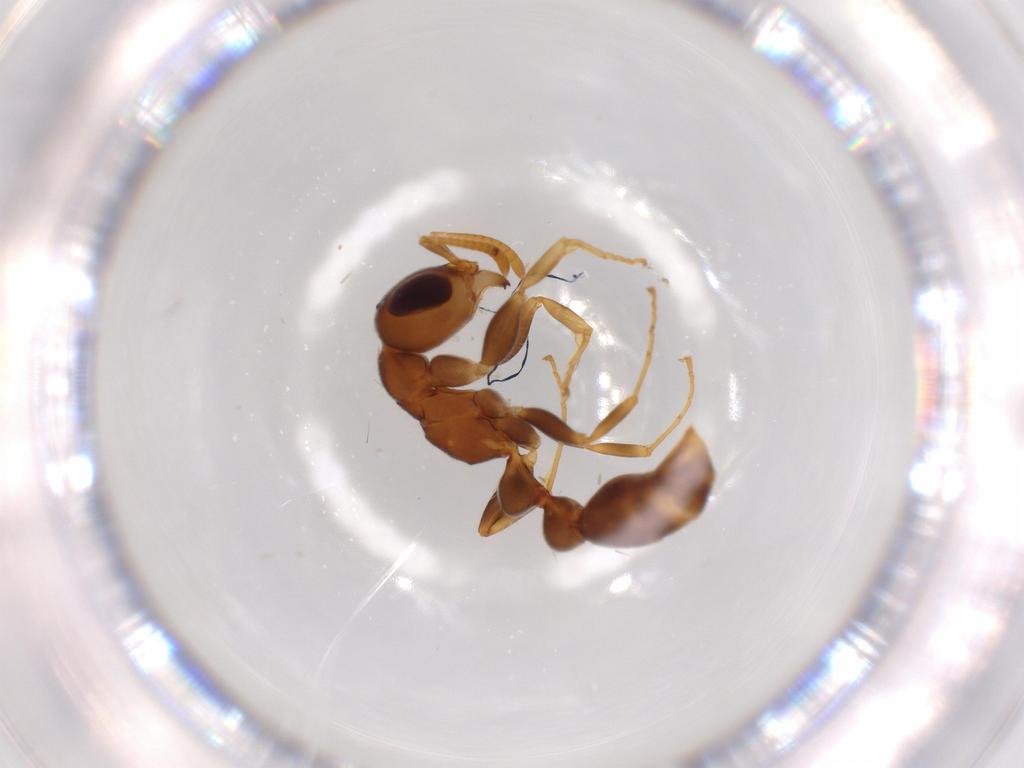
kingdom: Animalia
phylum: Arthropoda
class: Insecta
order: Hymenoptera
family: Formicidae
